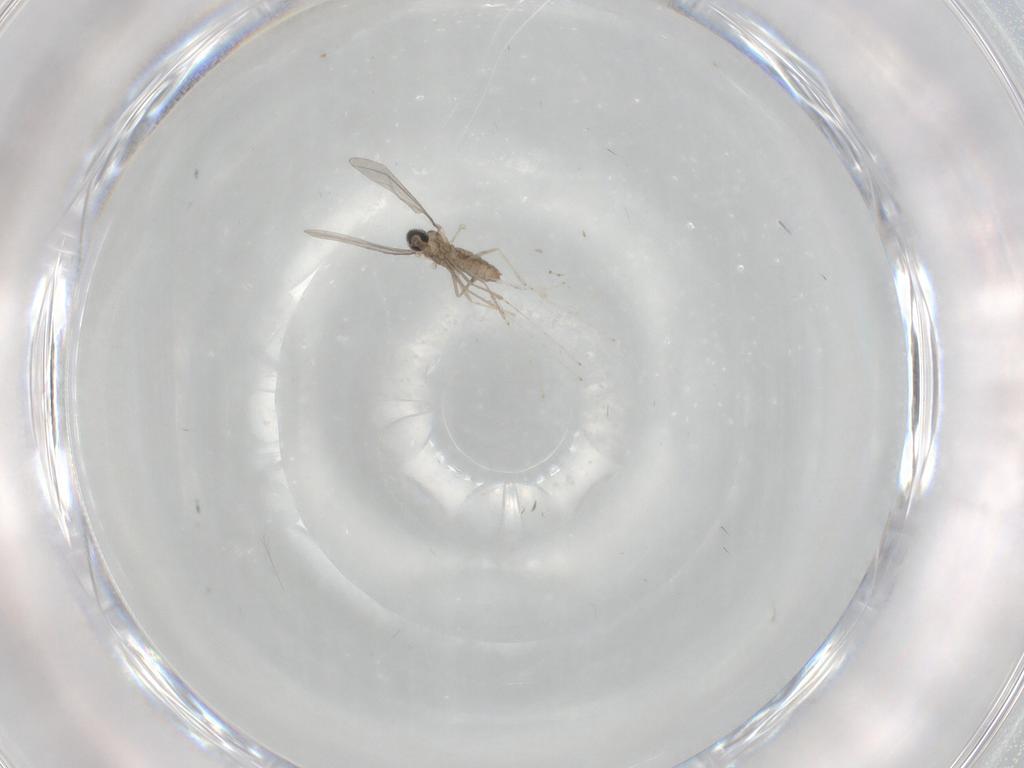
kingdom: Animalia
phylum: Arthropoda
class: Insecta
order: Diptera
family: Cecidomyiidae
